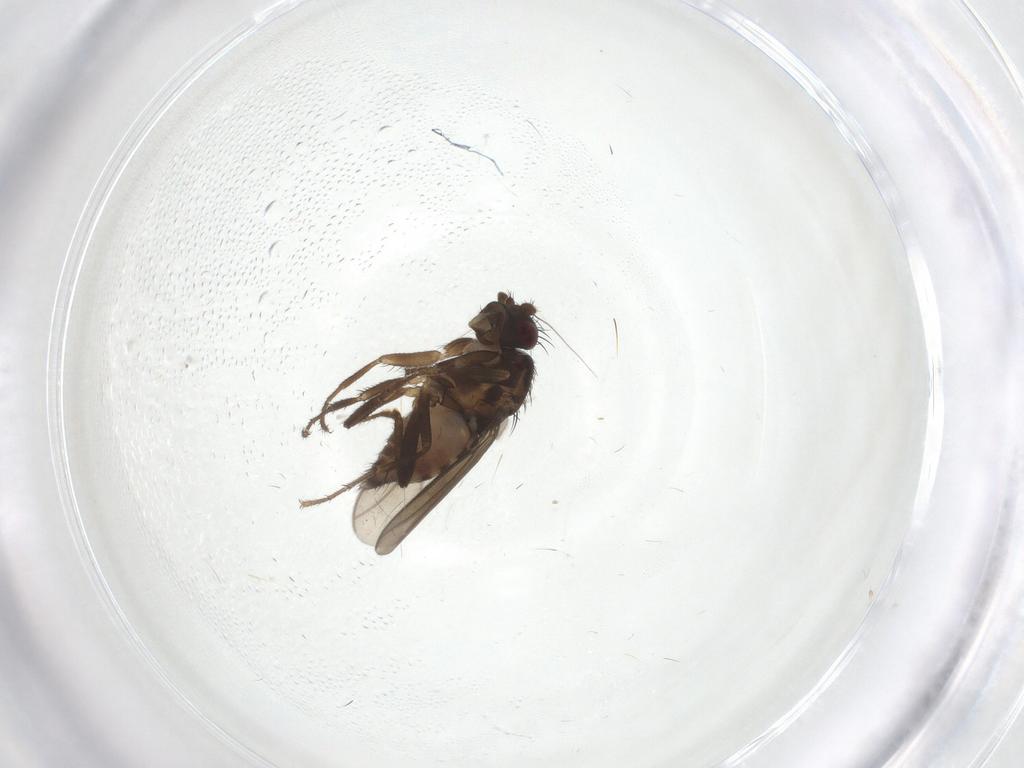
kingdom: Animalia
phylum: Arthropoda
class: Insecta
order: Diptera
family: Sphaeroceridae
